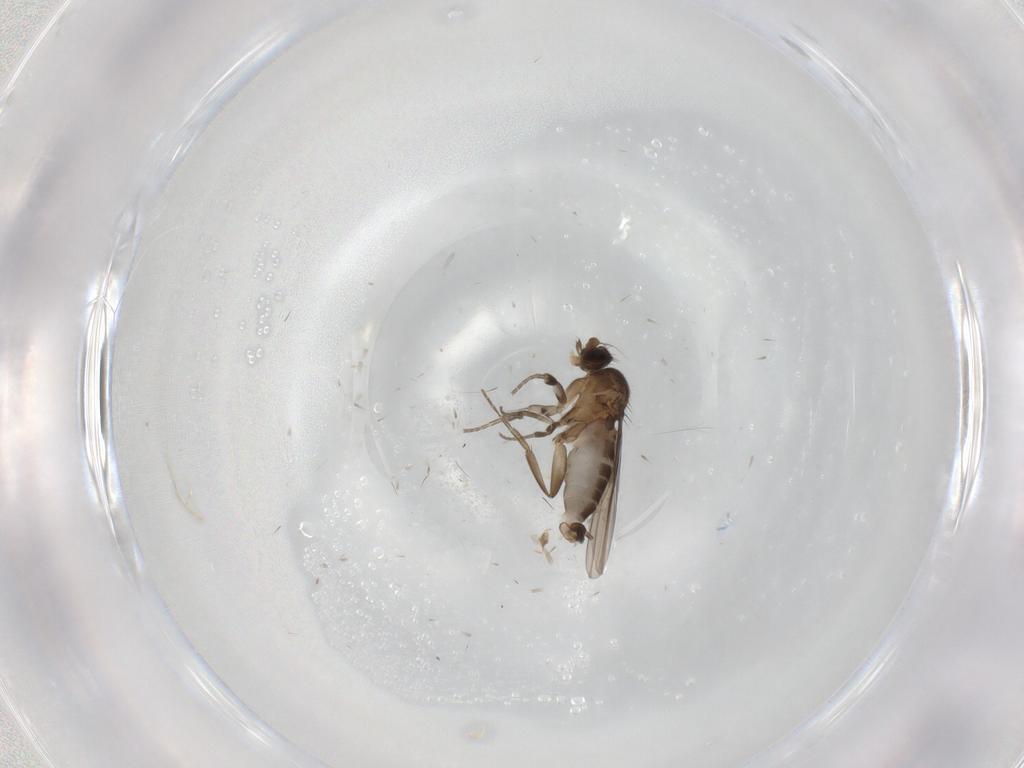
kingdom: Animalia
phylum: Arthropoda
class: Insecta
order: Diptera
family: Phoridae
